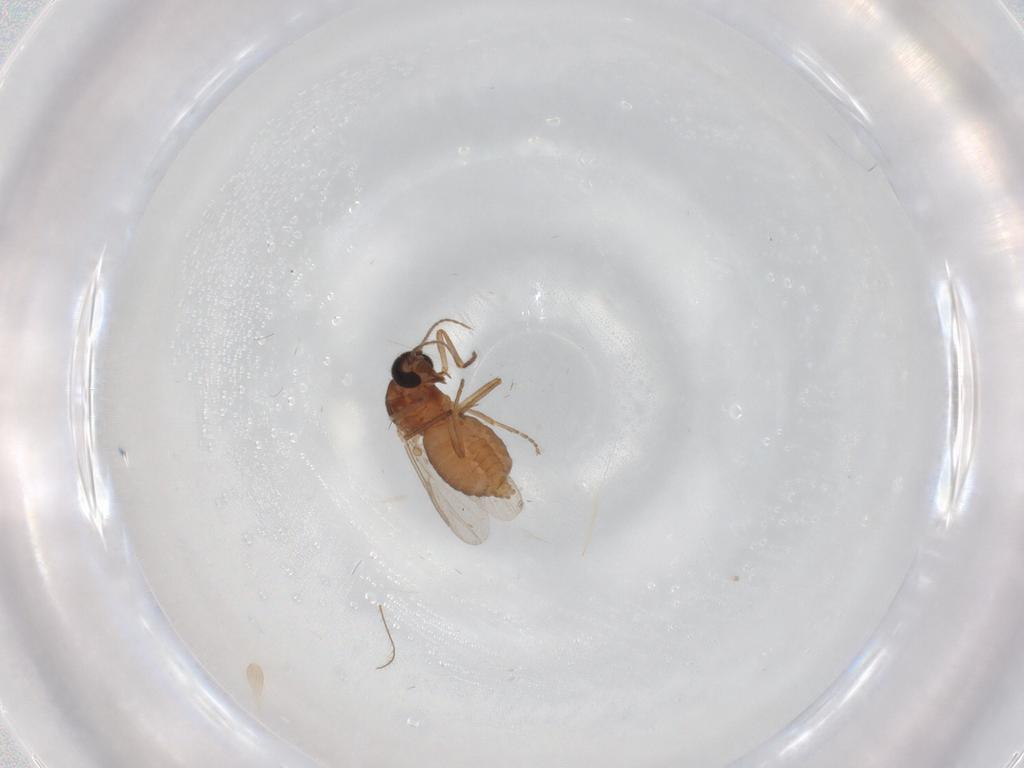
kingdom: Animalia
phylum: Arthropoda
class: Insecta
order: Diptera
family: Dolichopodidae
